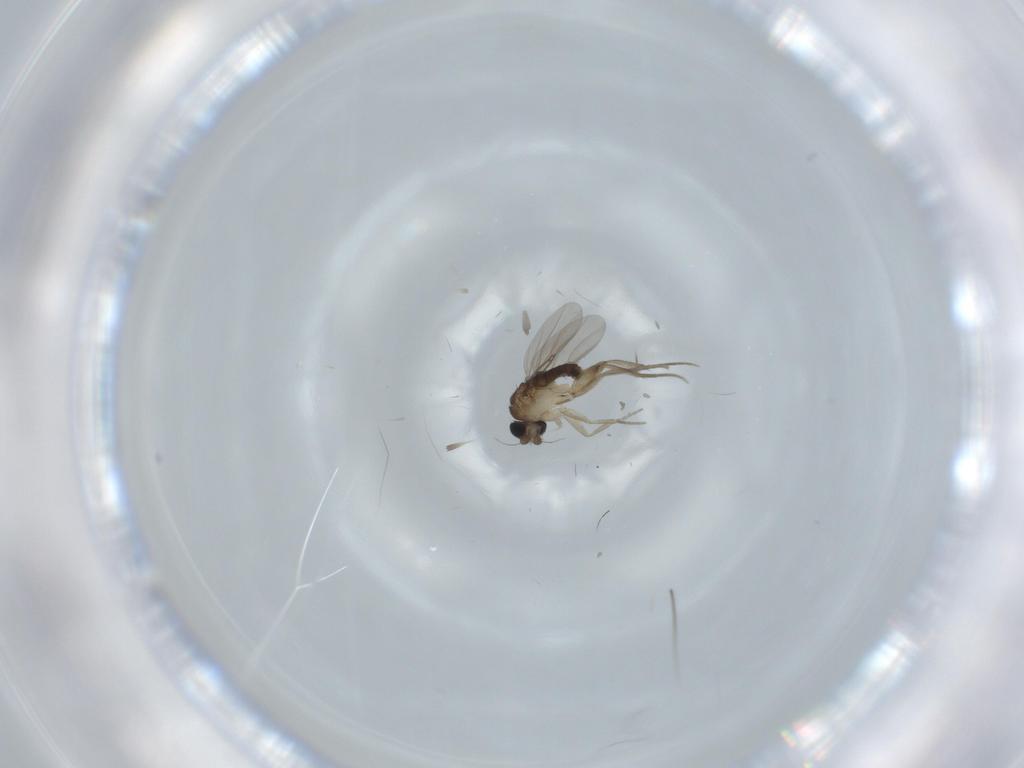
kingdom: Animalia
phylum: Arthropoda
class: Insecta
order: Diptera
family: Phoridae
